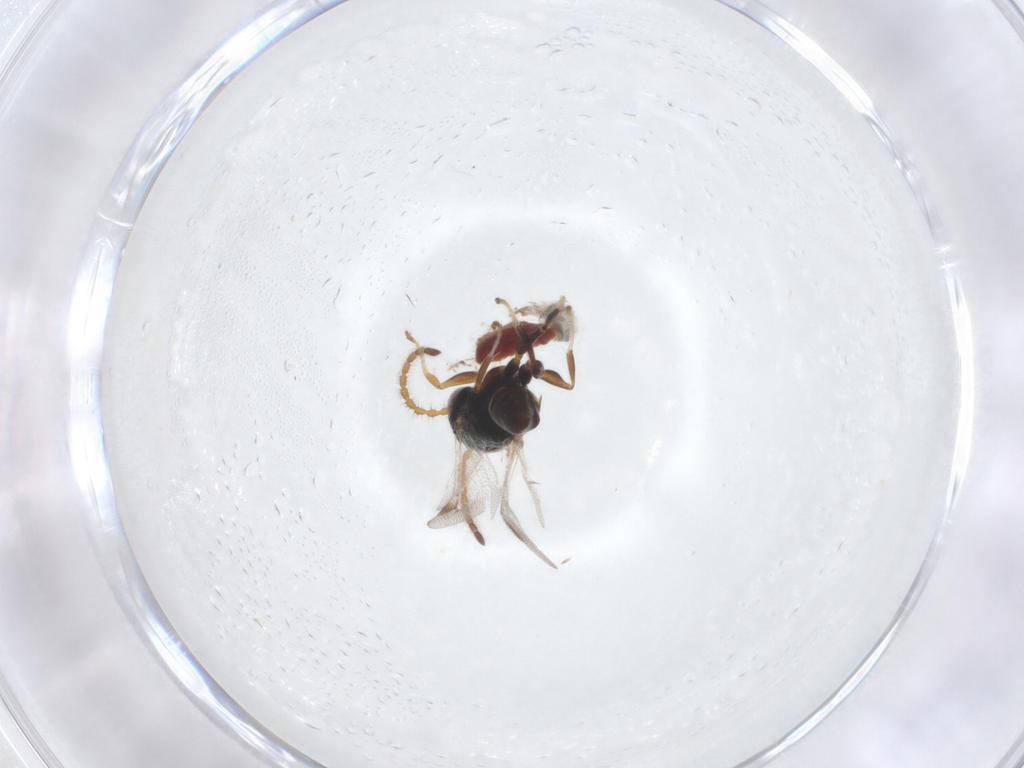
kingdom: Animalia
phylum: Arthropoda
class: Insecta
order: Hymenoptera
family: Dryinidae
